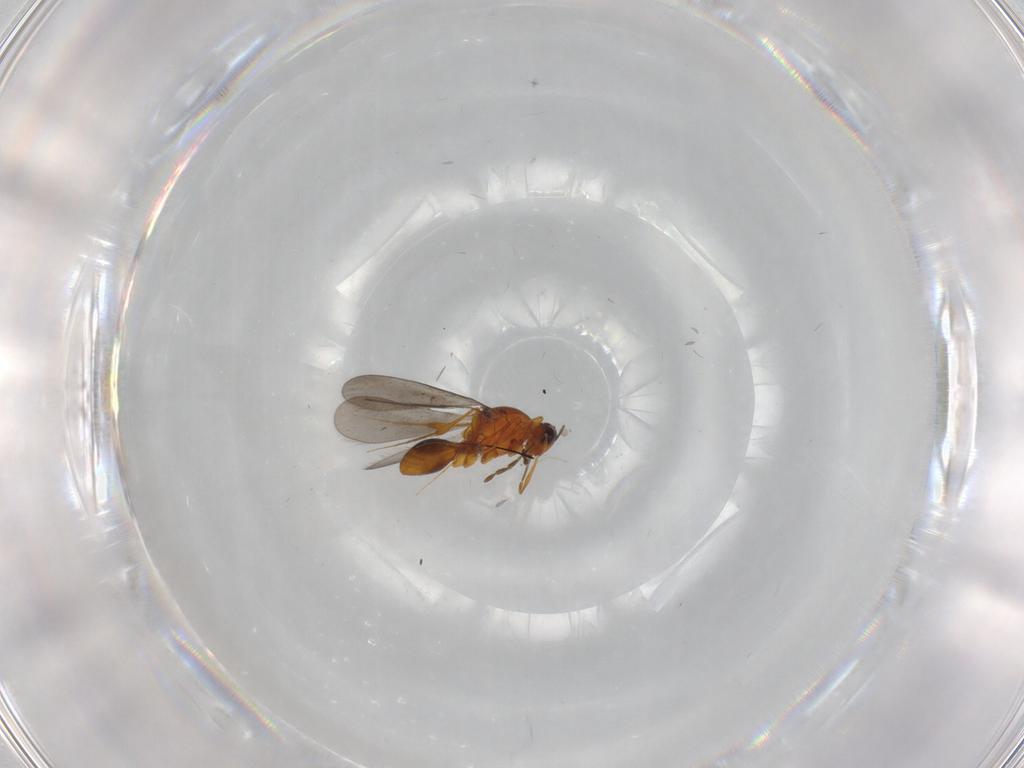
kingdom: Animalia
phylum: Arthropoda
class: Insecta
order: Hymenoptera
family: Platygastridae
